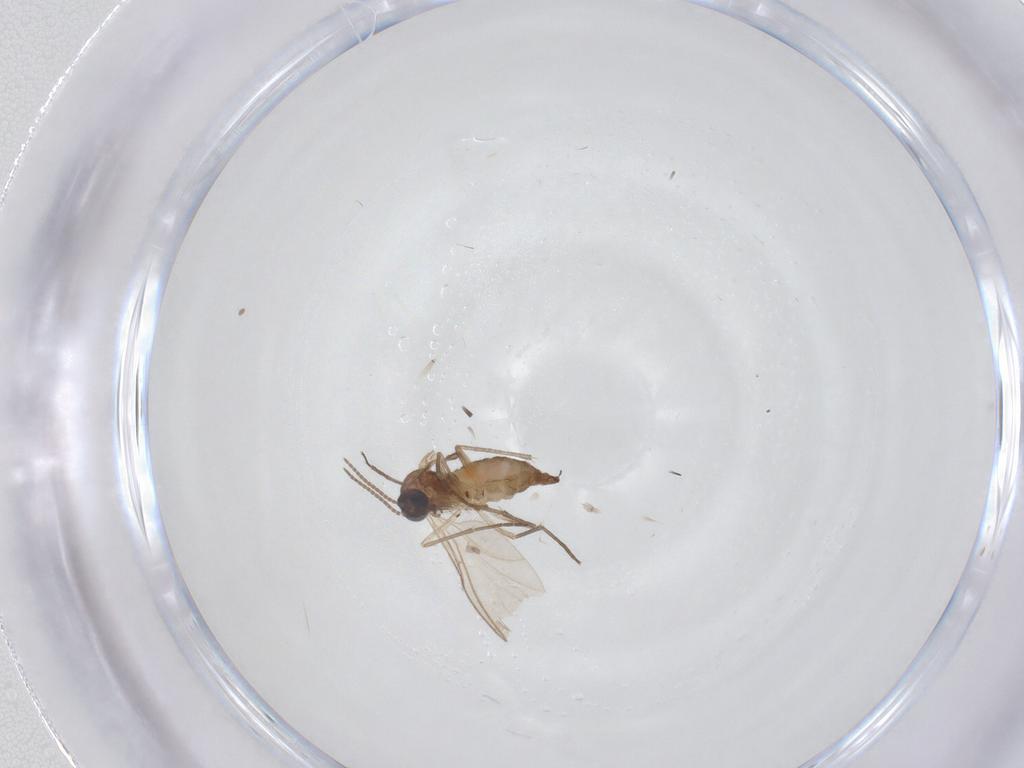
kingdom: Animalia
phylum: Arthropoda
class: Insecta
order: Diptera
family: Sciaridae
